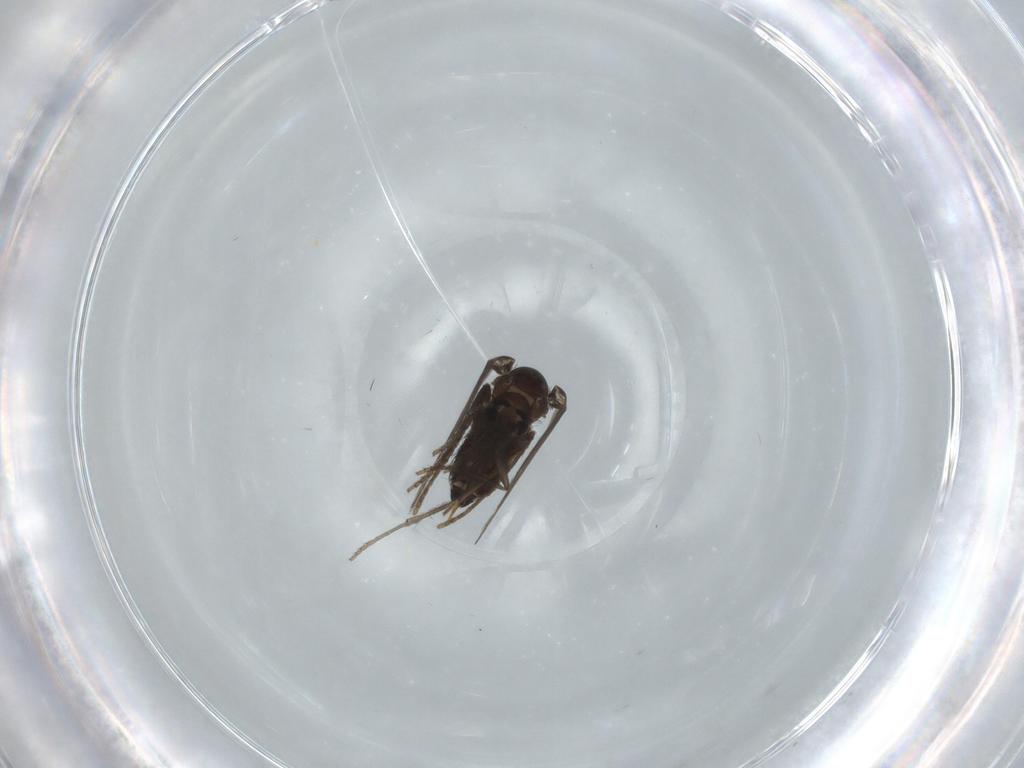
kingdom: Animalia
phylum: Arthropoda
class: Insecta
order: Diptera
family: Psychodidae
